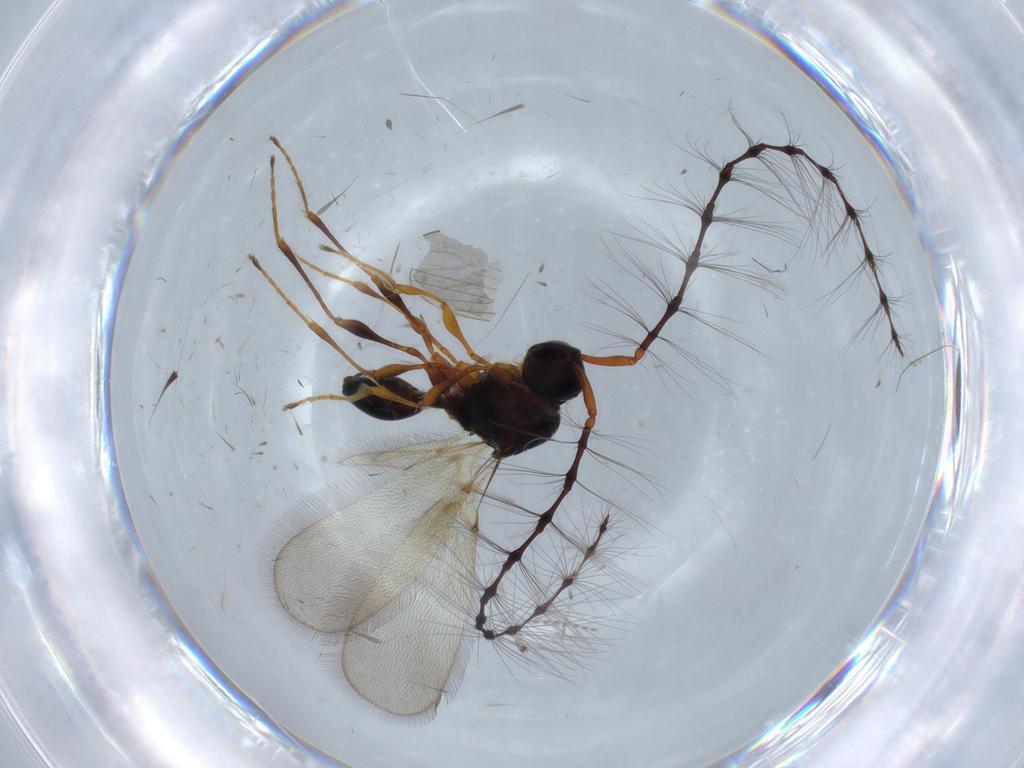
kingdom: Animalia
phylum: Arthropoda
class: Insecta
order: Hymenoptera
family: Diapriidae
